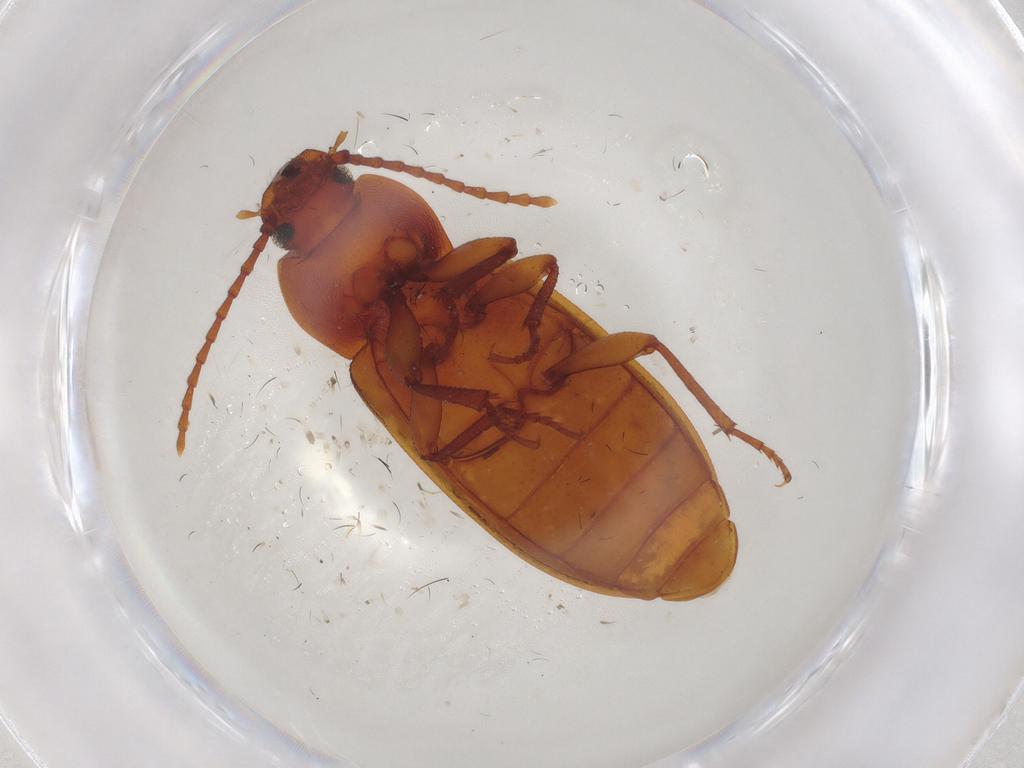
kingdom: Animalia
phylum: Arthropoda
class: Insecta
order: Coleoptera
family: Tenebrionidae
